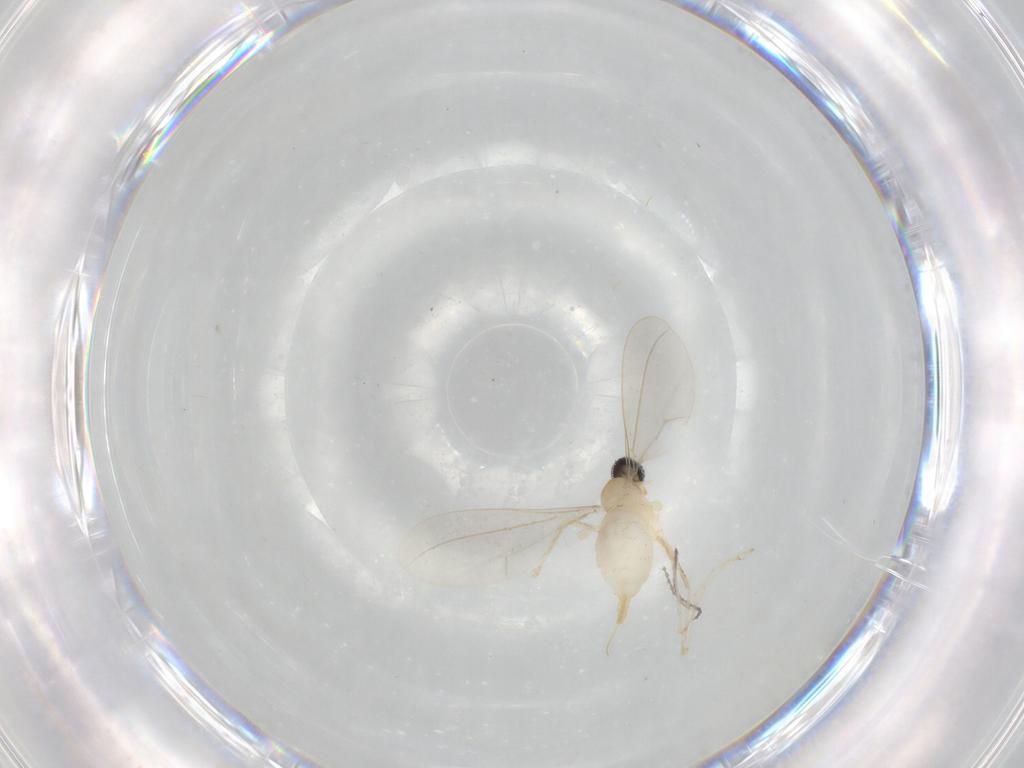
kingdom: Animalia
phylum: Arthropoda
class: Insecta
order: Diptera
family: Cecidomyiidae
